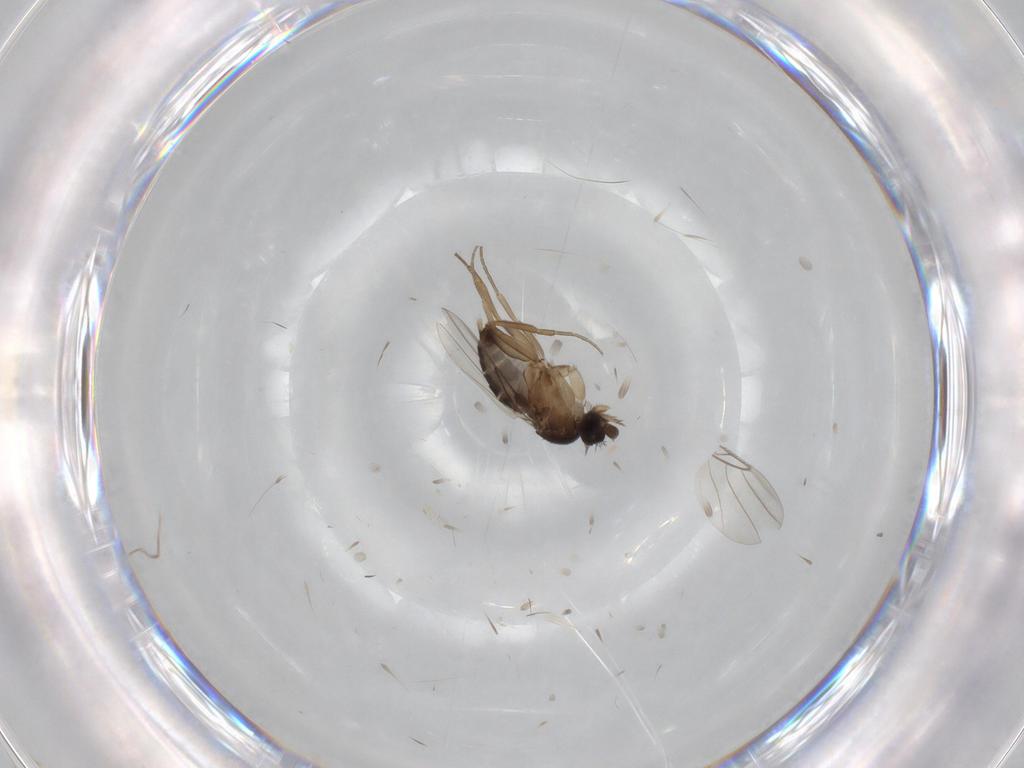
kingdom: Animalia
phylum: Arthropoda
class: Insecta
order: Diptera
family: Phoridae
